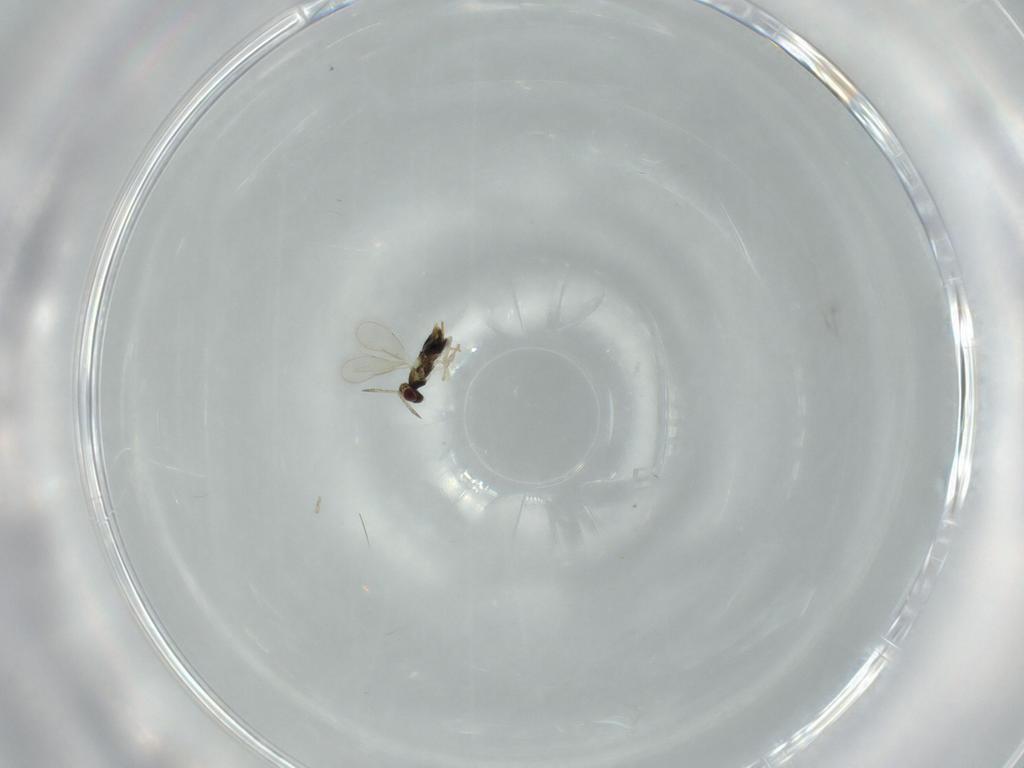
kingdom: Animalia
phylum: Arthropoda
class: Insecta
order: Hymenoptera
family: Aphelinidae
